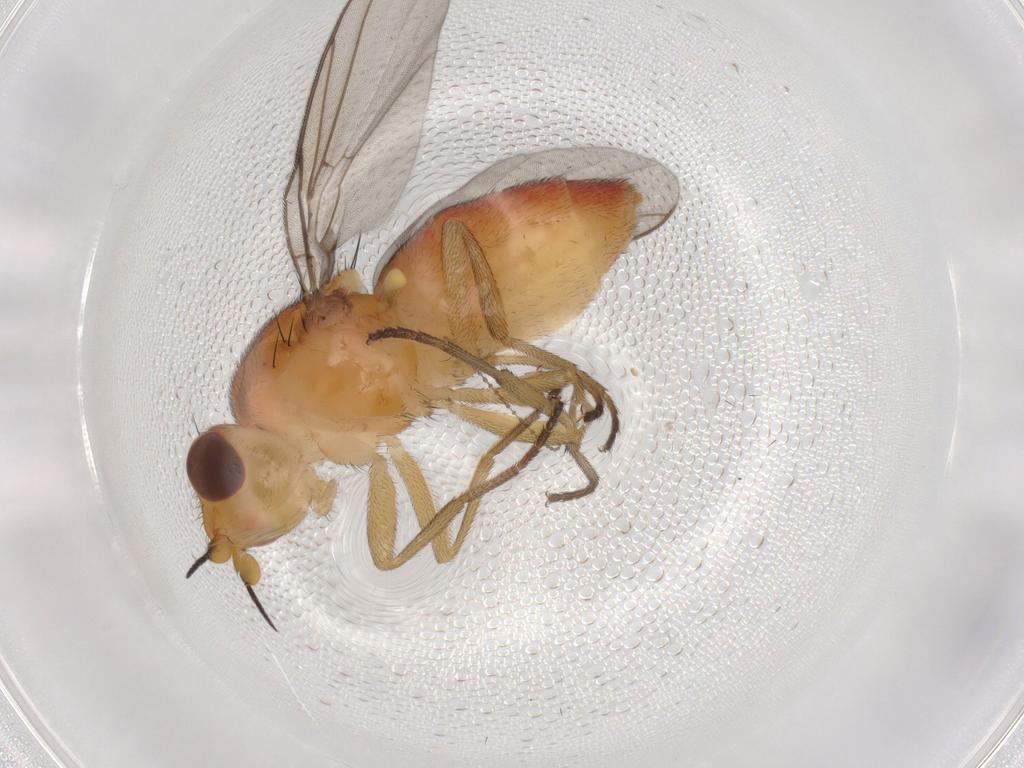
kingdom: Animalia
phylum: Arthropoda
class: Insecta
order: Diptera
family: Chloropidae
